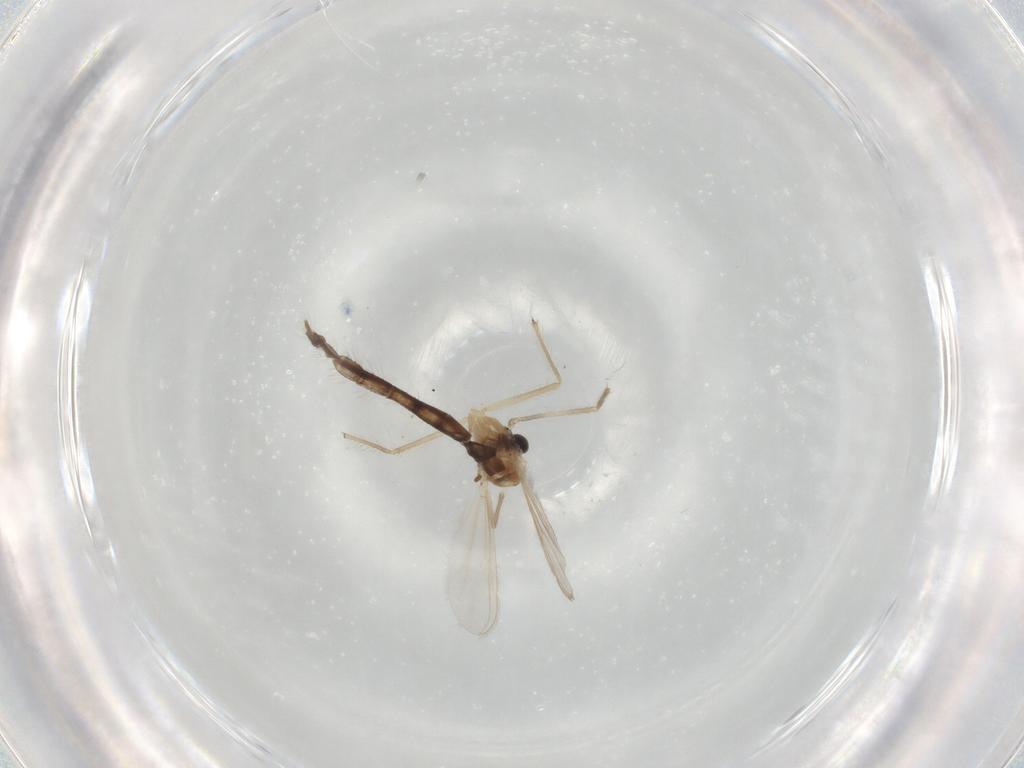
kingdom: Animalia
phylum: Arthropoda
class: Insecta
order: Diptera
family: Chironomidae
